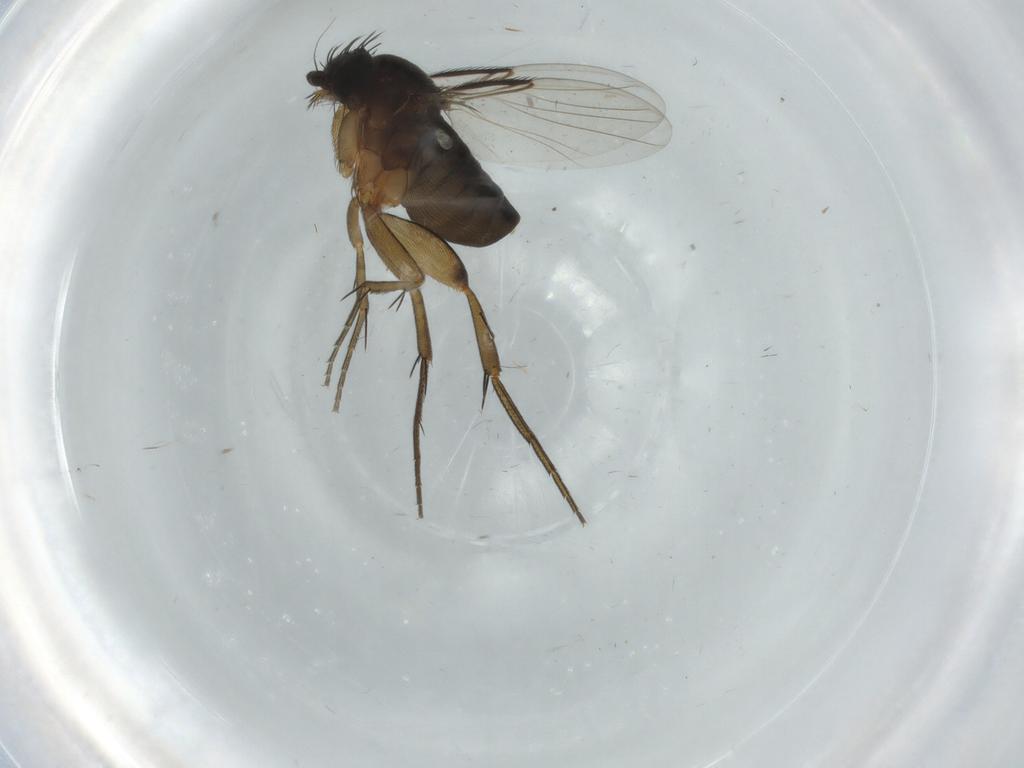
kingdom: Animalia
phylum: Arthropoda
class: Insecta
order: Diptera
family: Phoridae
